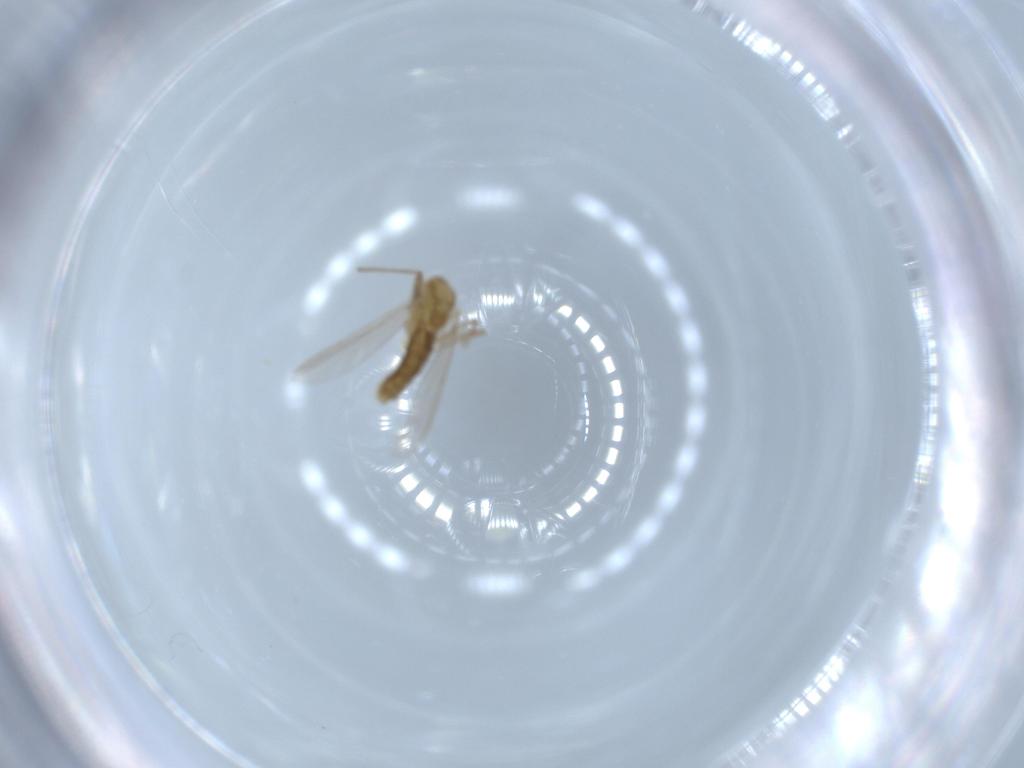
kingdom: Animalia
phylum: Arthropoda
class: Insecta
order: Diptera
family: Chironomidae
